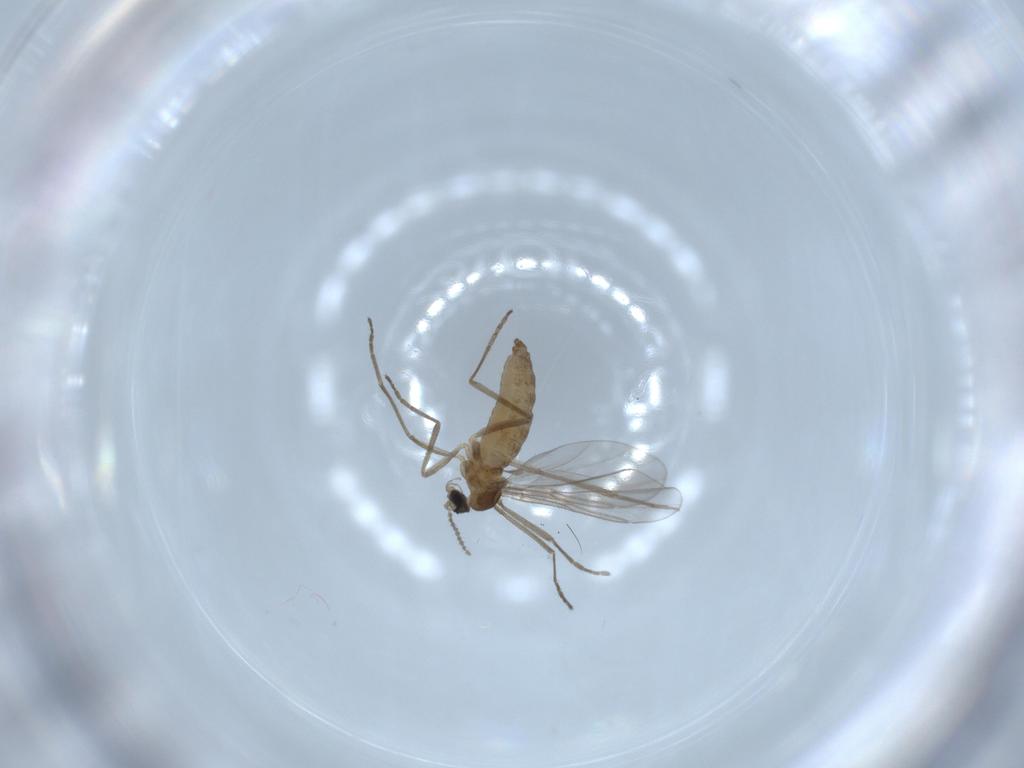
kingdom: Animalia
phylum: Arthropoda
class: Insecta
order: Diptera
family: Cecidomyiidae
